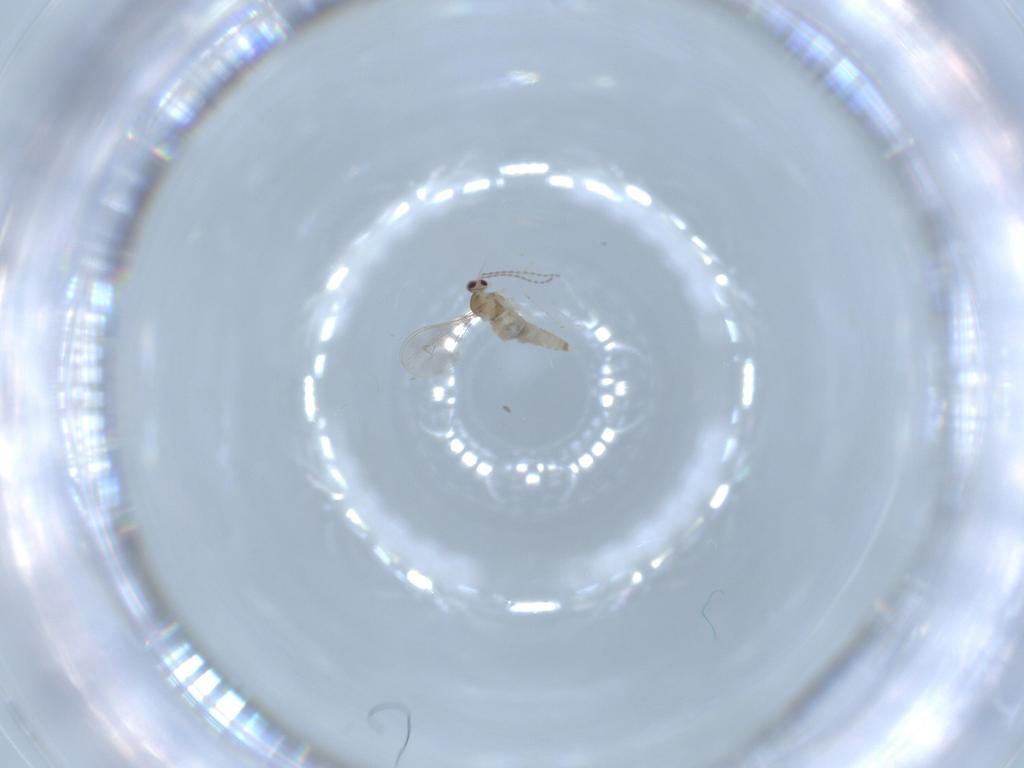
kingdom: Animalia
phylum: Arthropoda
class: Insecta
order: Diptera
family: Cecidomyiidae
